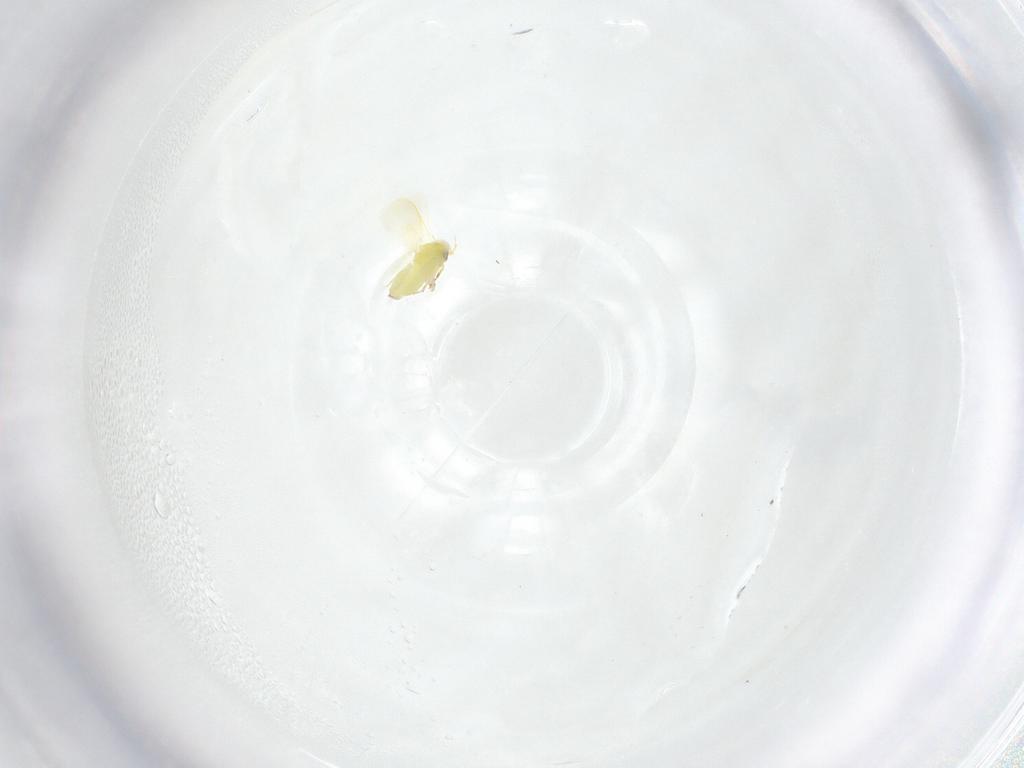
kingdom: Animalia
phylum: Arthropoda
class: Insecta
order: Hemiptera
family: Aleyrodidae
